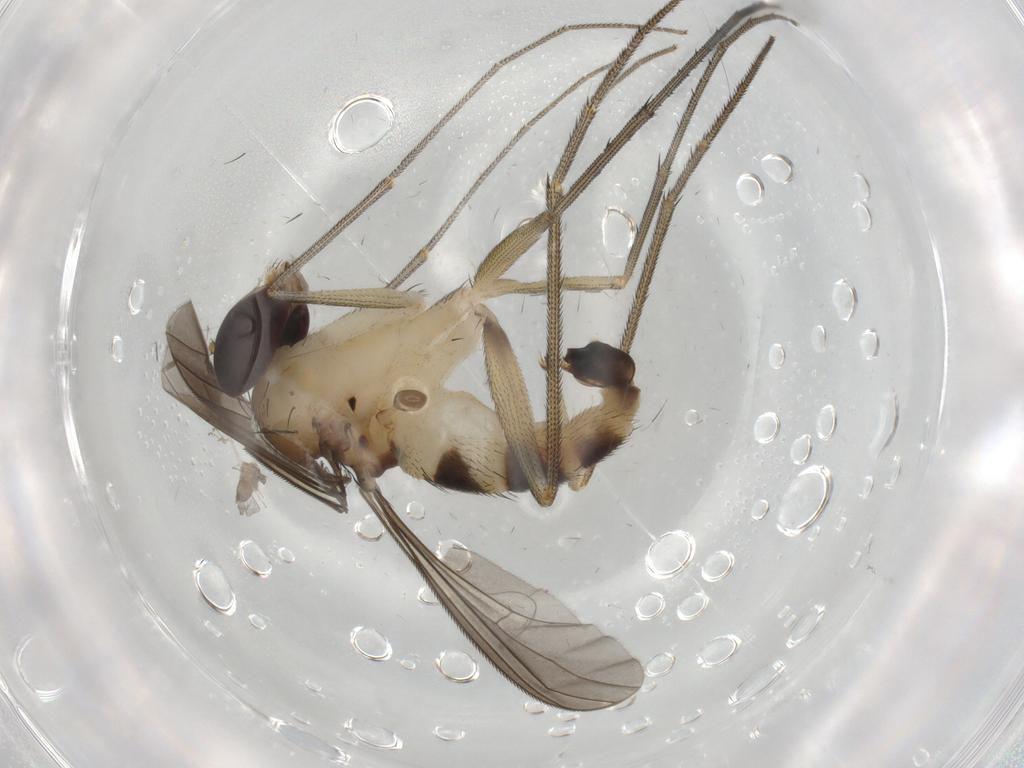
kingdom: Animalia
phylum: Arthropoda
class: Insecta
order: Diptera
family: Dolichopodidae
